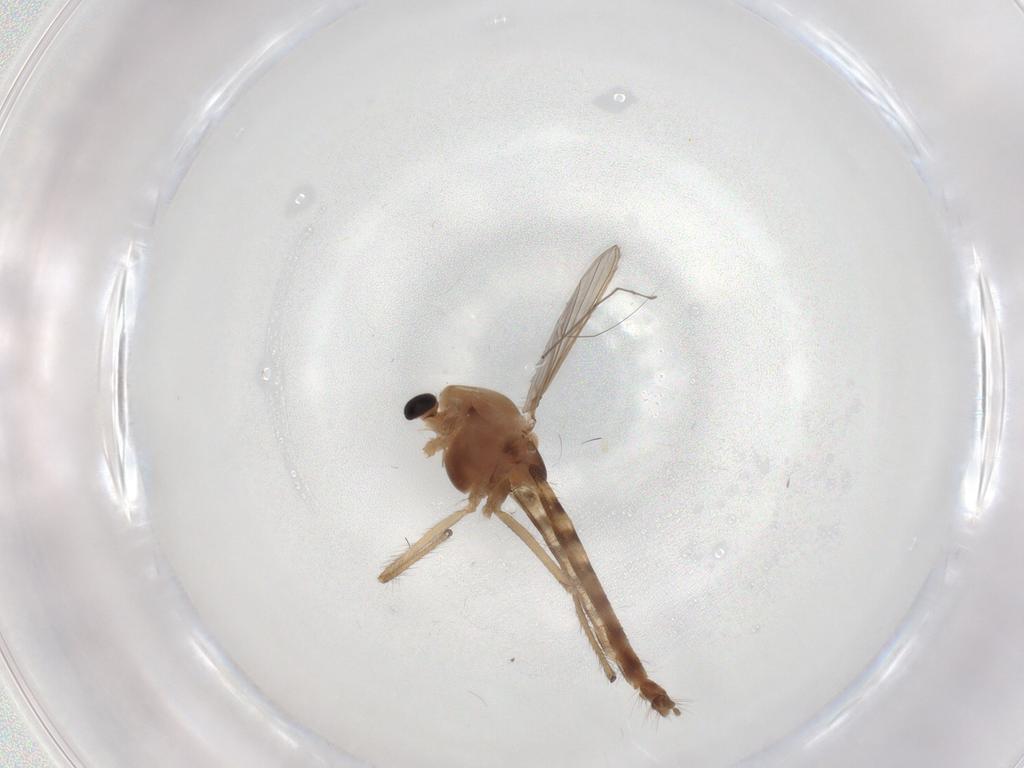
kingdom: Animalia
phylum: Arthropoda
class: Insecta
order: Diptera
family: Chironomidae
